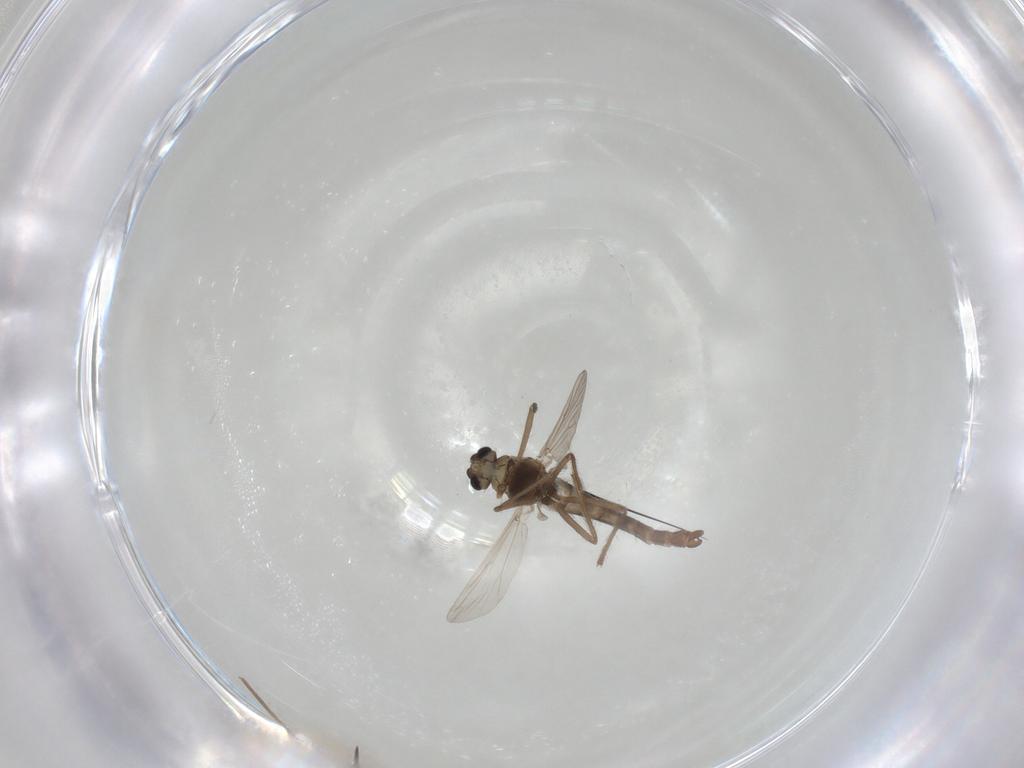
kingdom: Animalia
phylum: Arthropoda
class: Insecta
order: Diptera
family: Chironomidae
